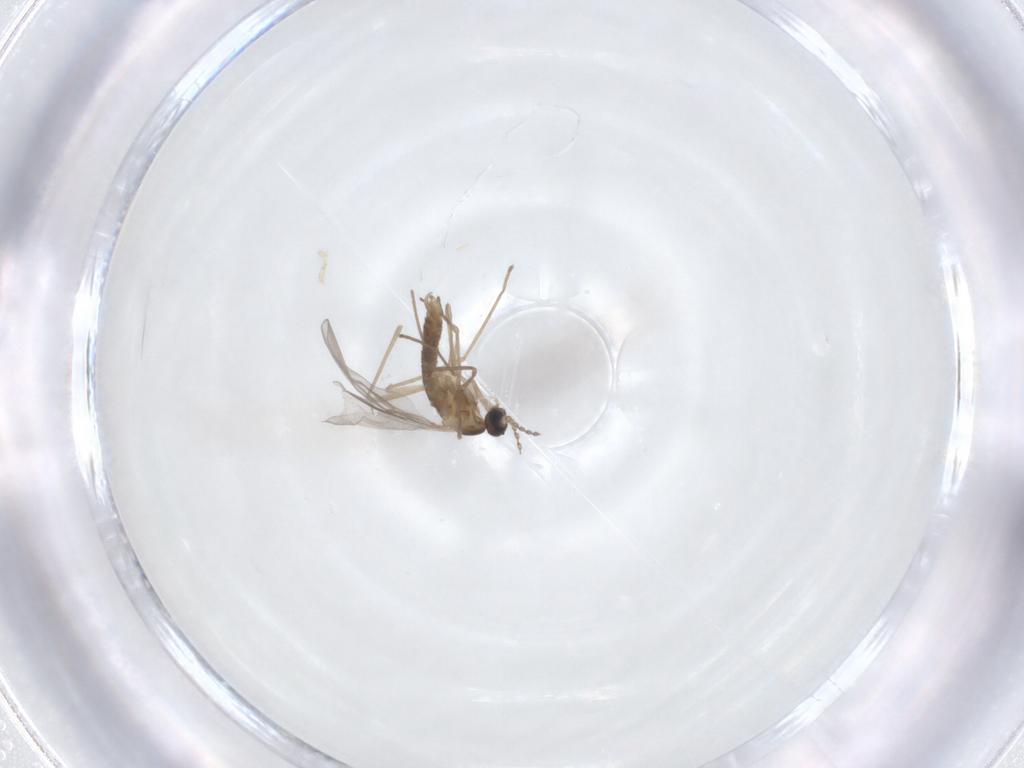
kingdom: Animalia
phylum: Arthropoda
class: Insecta
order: Diptera
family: Cecidomyiidae
